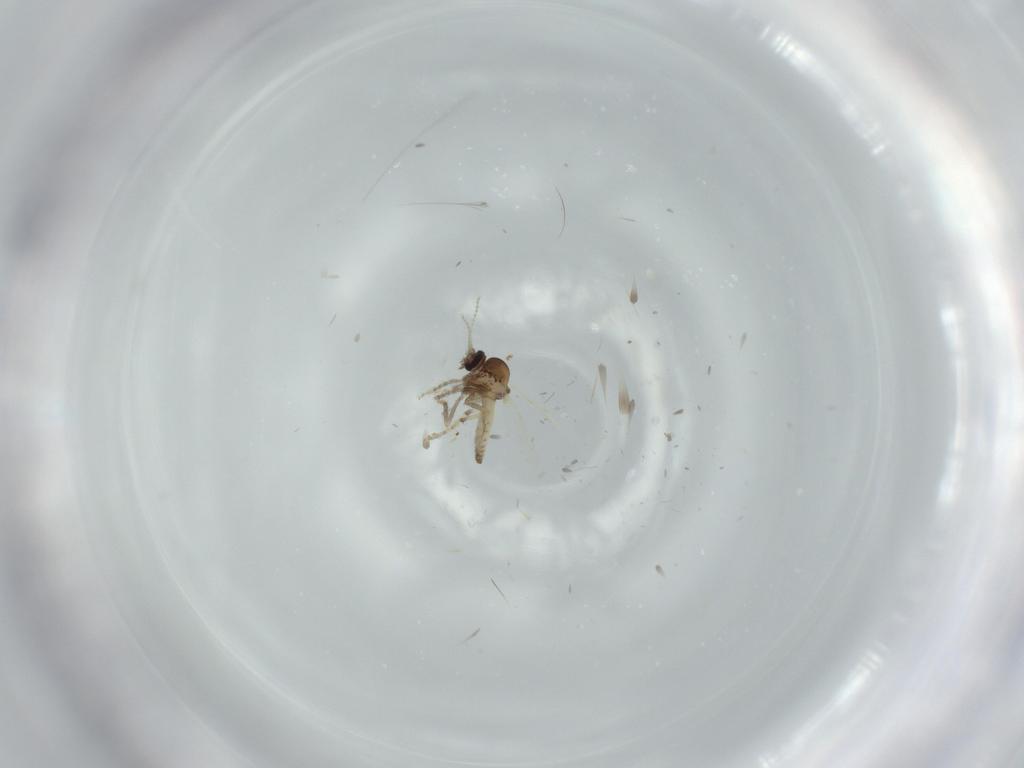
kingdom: Animalia
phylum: Arthropoda
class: Insecta
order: Diptera
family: Ceratopogonidae
